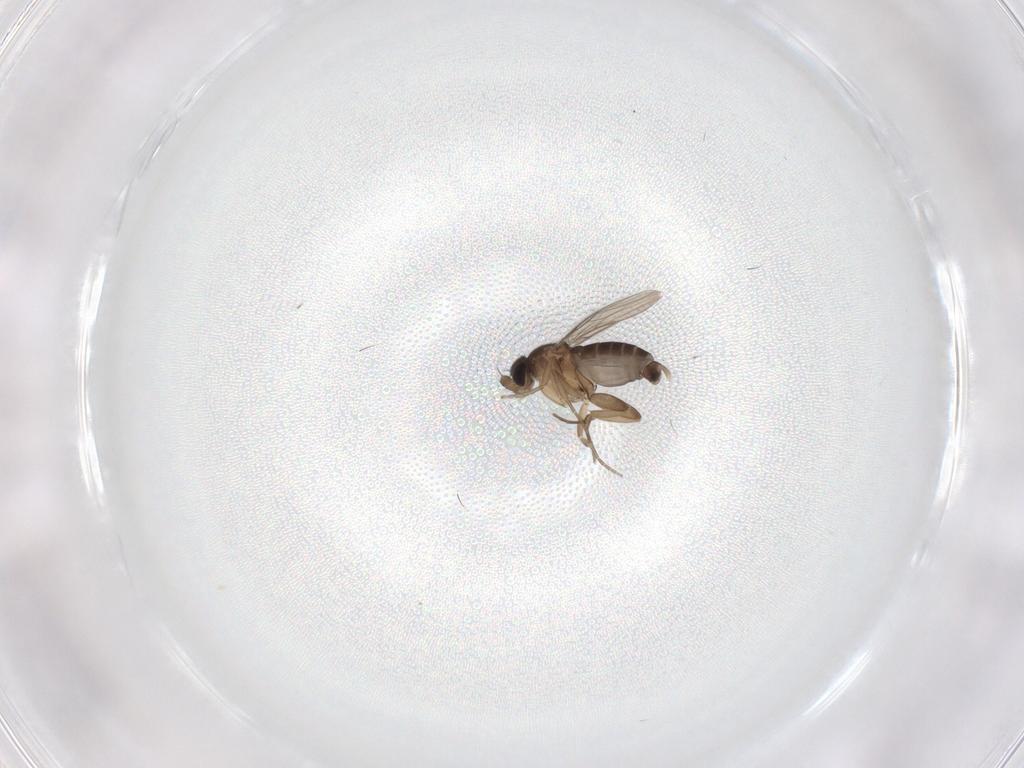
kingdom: Animalia
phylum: Arthropoda
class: Insecta
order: Diptera
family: Phoridae
